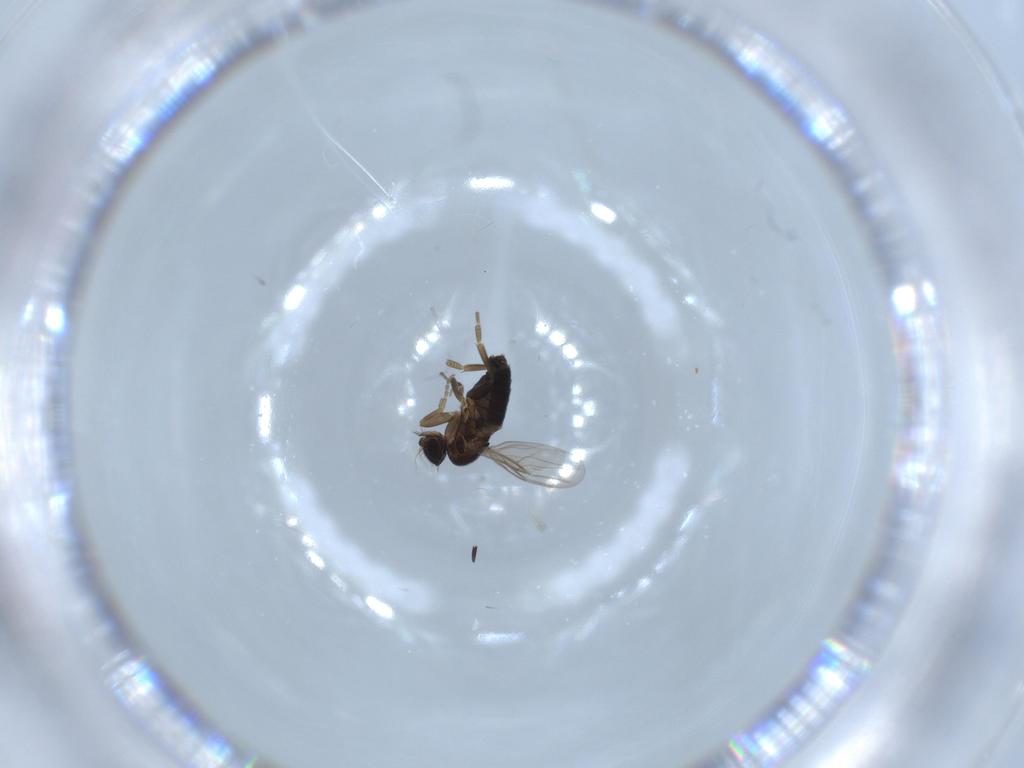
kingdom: Animalia
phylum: Arthropoda
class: Insecta
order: Diptera
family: Phoridae
